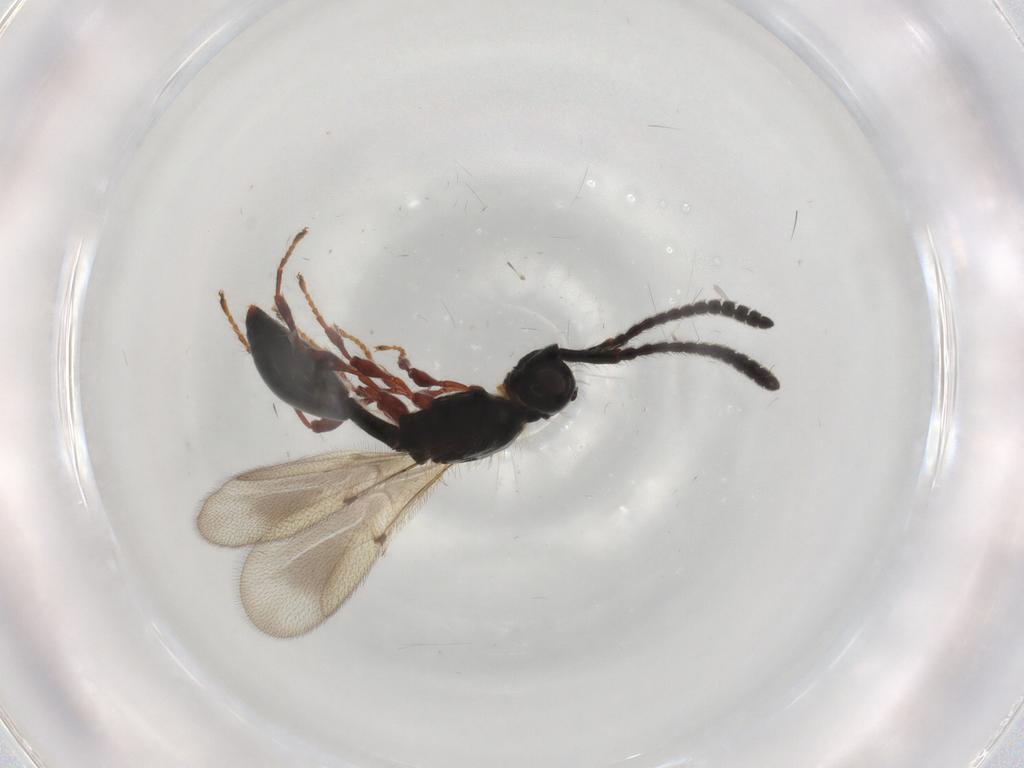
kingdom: Animalia
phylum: Arthropoda
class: Insecta
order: Hymenoptera
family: Diapriidae
